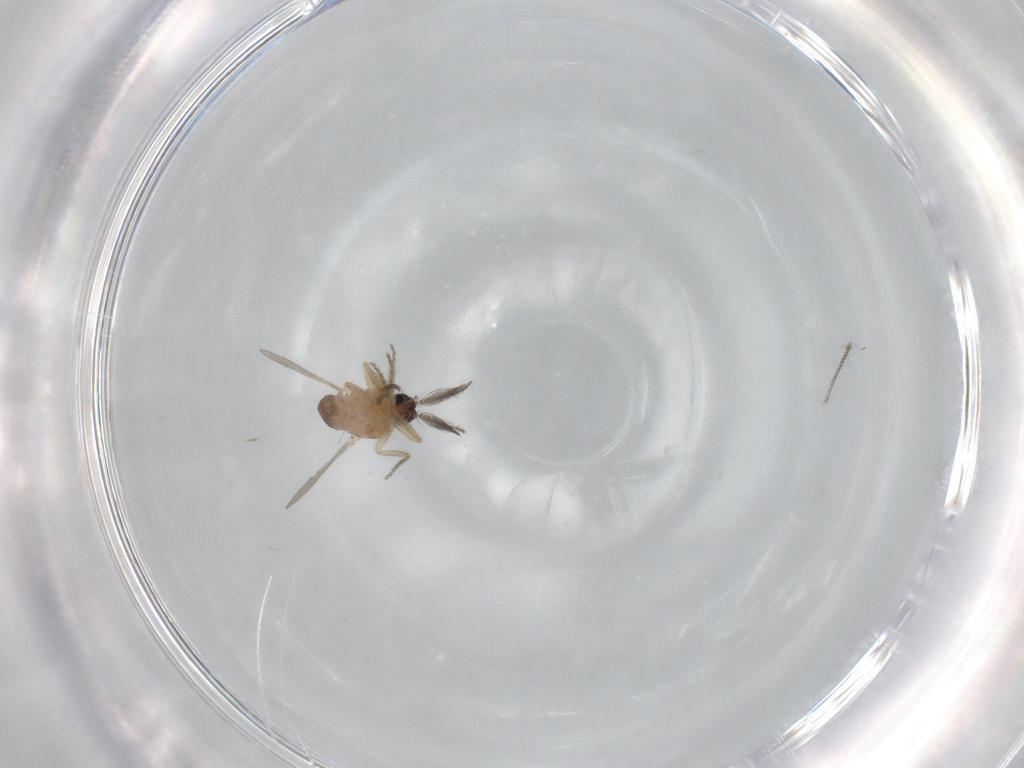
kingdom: Animalia
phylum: Arthropoda
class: Insecta
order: Diptera
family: Ceratopogonidae
